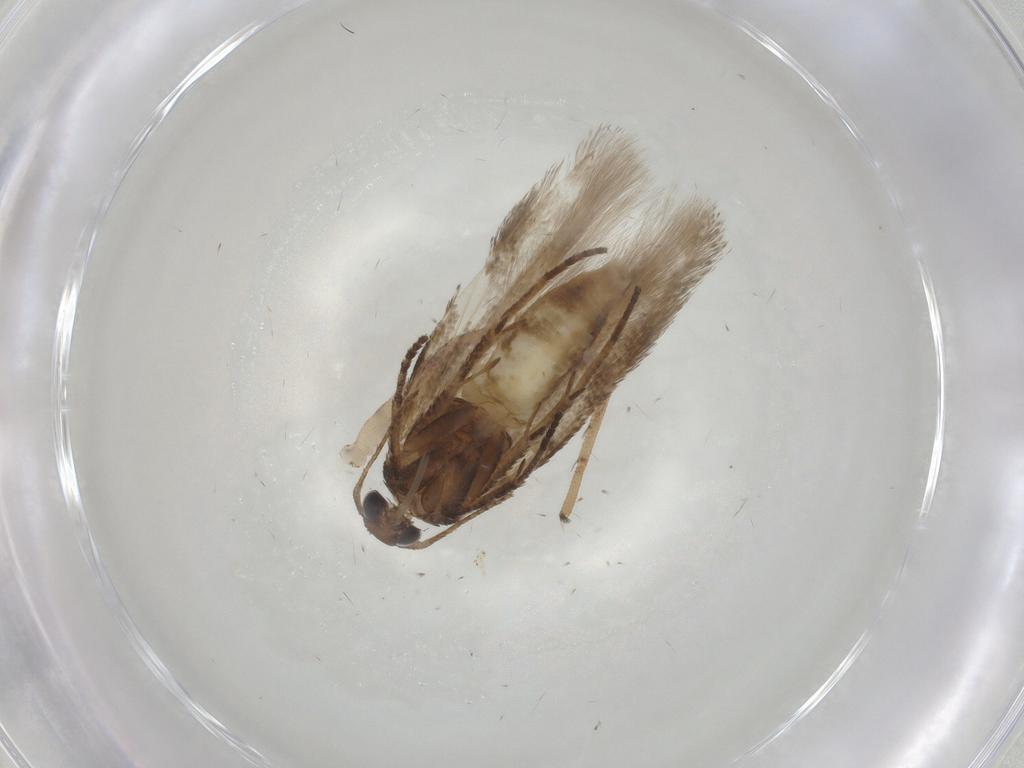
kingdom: Animalia
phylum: Arthropoda
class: Insecta
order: Lepidoptera
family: Gelechiidae
